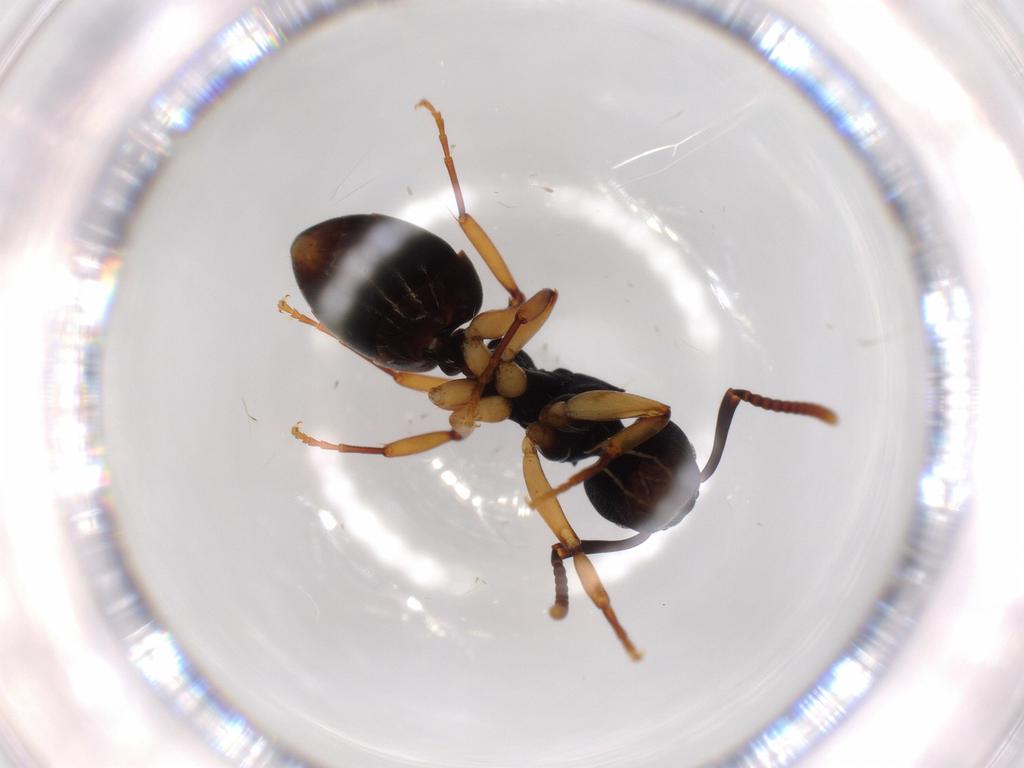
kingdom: Animalia
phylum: Arthropoda
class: Insecta
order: Hymenoptera
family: Formicidae
